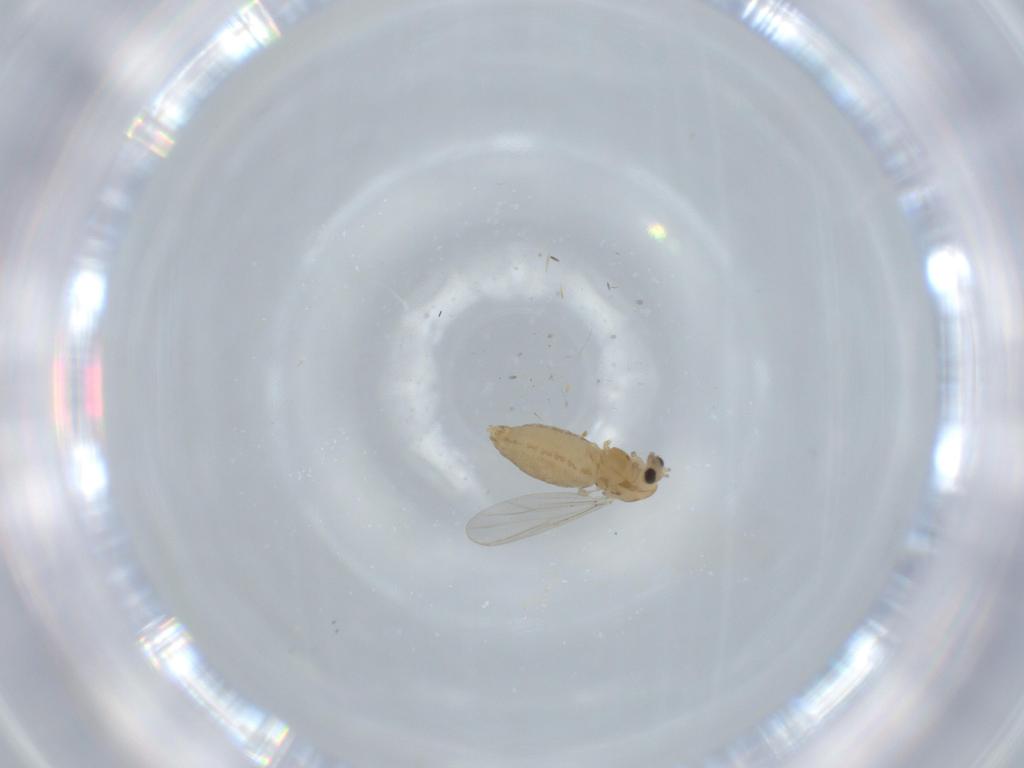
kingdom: Animalia
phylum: Arthropoda
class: Insecta
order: Diptera
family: Chironomidae
